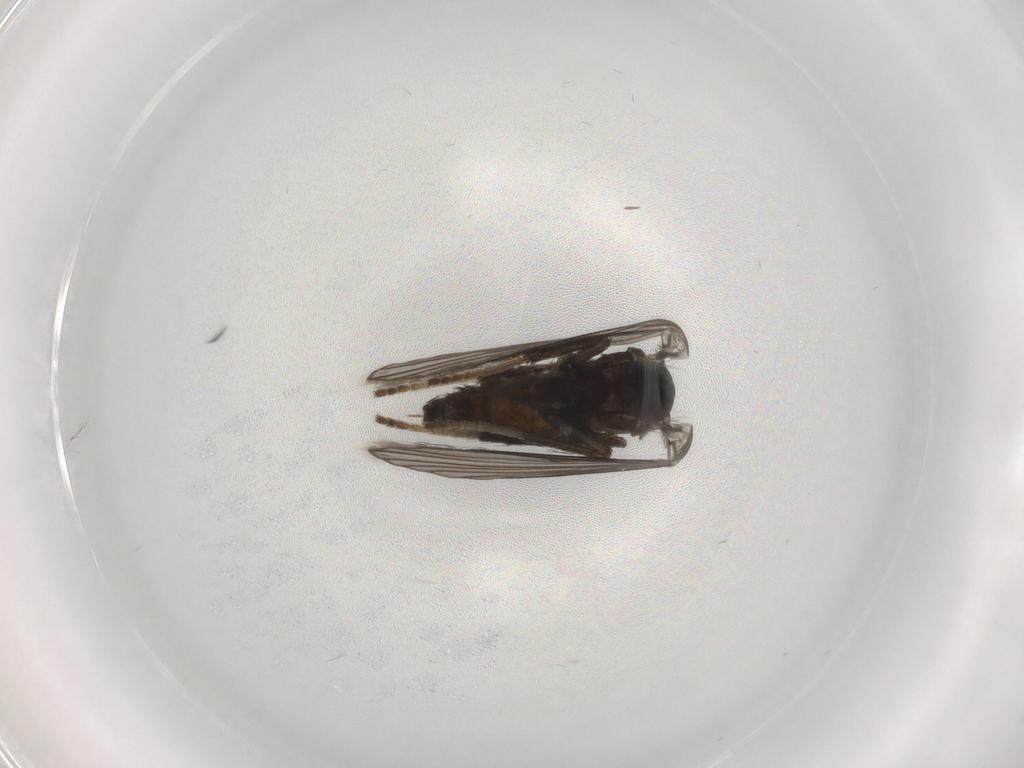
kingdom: Animalia
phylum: Arthropoda
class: Insecta
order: Diptera
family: Psychodidae
